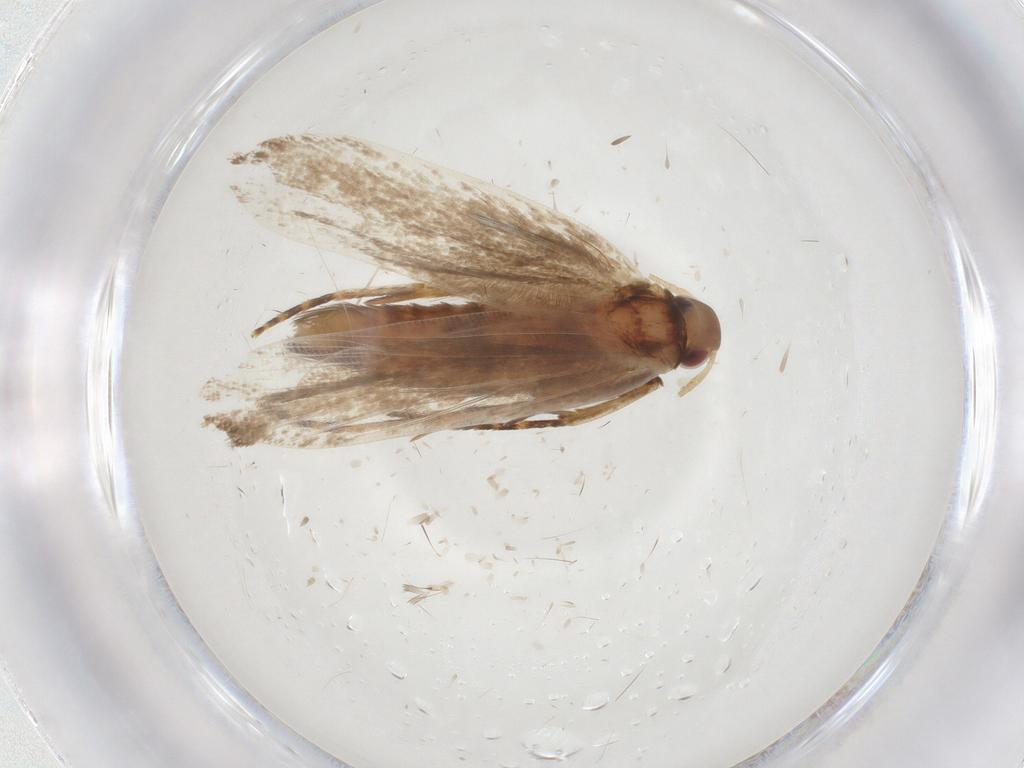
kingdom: Animalia
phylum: Arthropoda
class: Insecta
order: Lepidoptera
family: Gelechiidae
